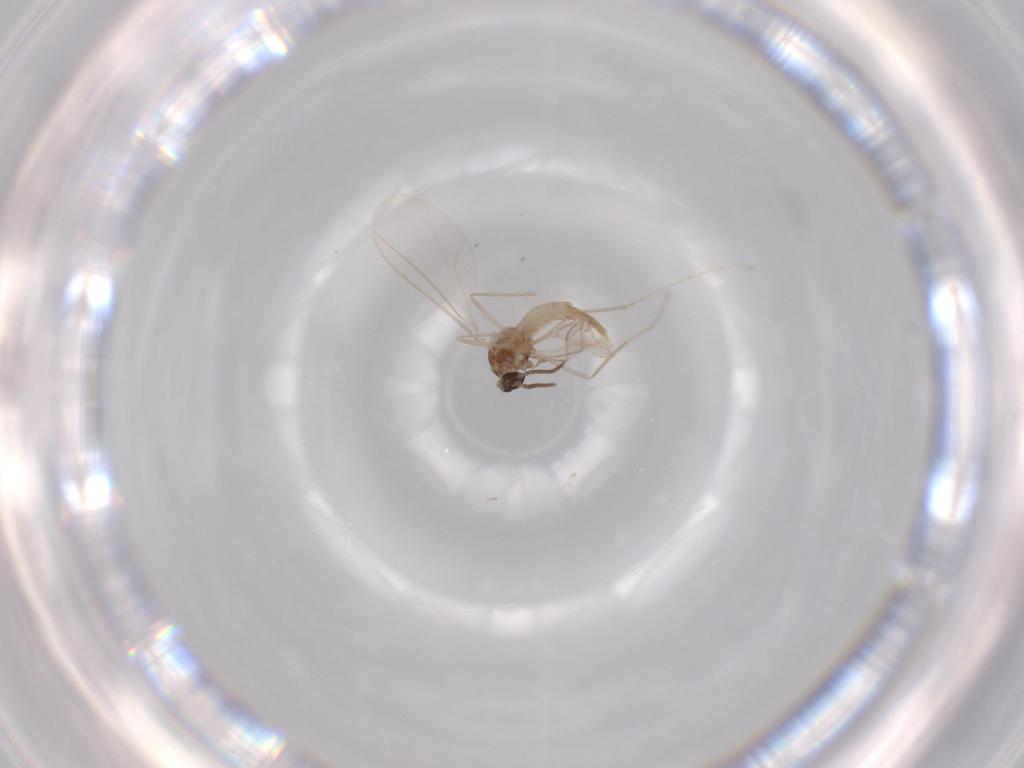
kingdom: Animalia
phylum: Arthropoda
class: Insecta
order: Diptera
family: Cecidomyiidae
